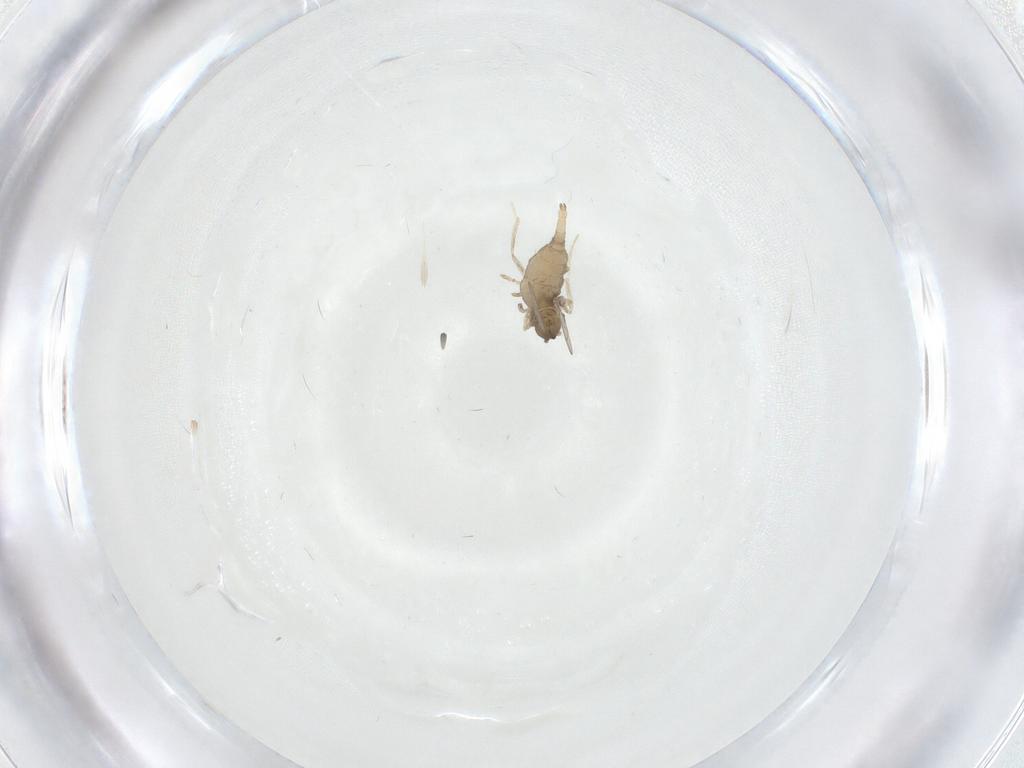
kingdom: Animalia
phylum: Arthropoda
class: Insecta
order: Diptera
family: Cecidomyiidae
